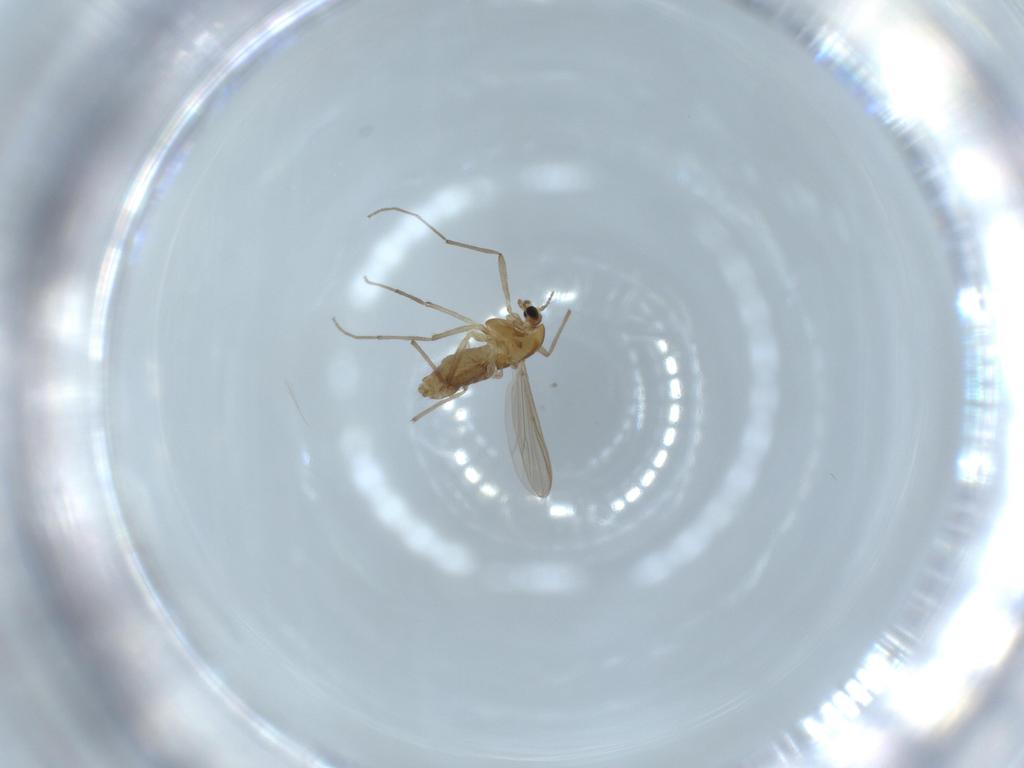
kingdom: Animalia
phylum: Arthropoda
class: Insecta
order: Diptera
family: Chironomidae
